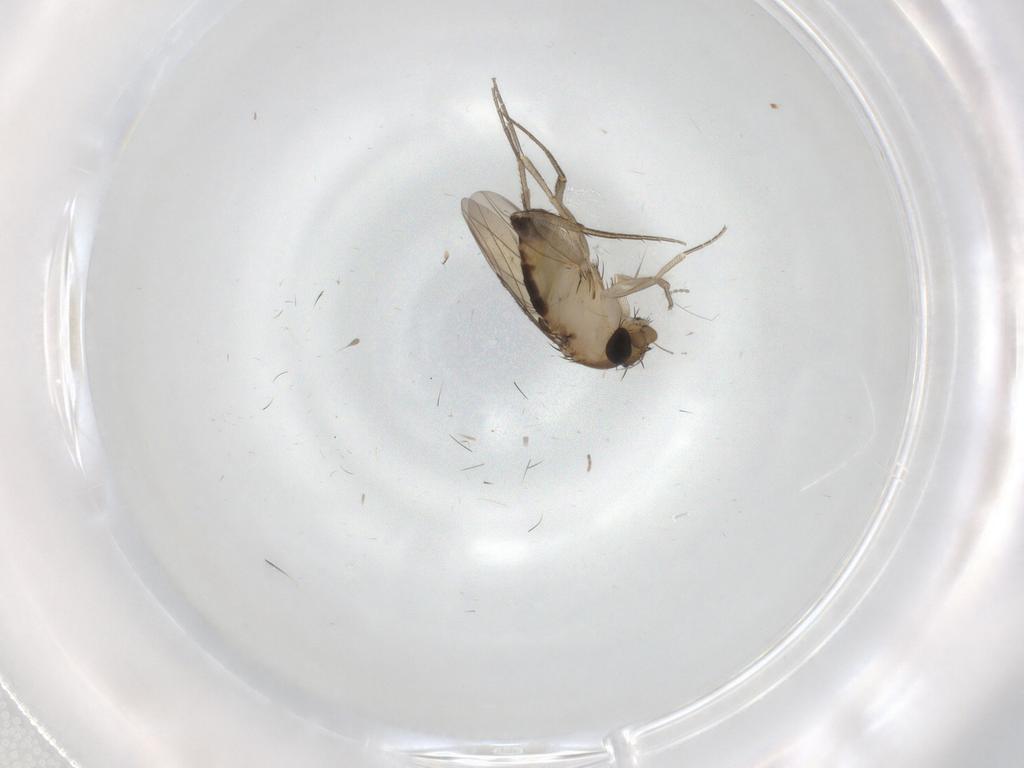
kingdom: Animalia
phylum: Arthropoda
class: Insecta
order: Diptera
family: Phoridae
